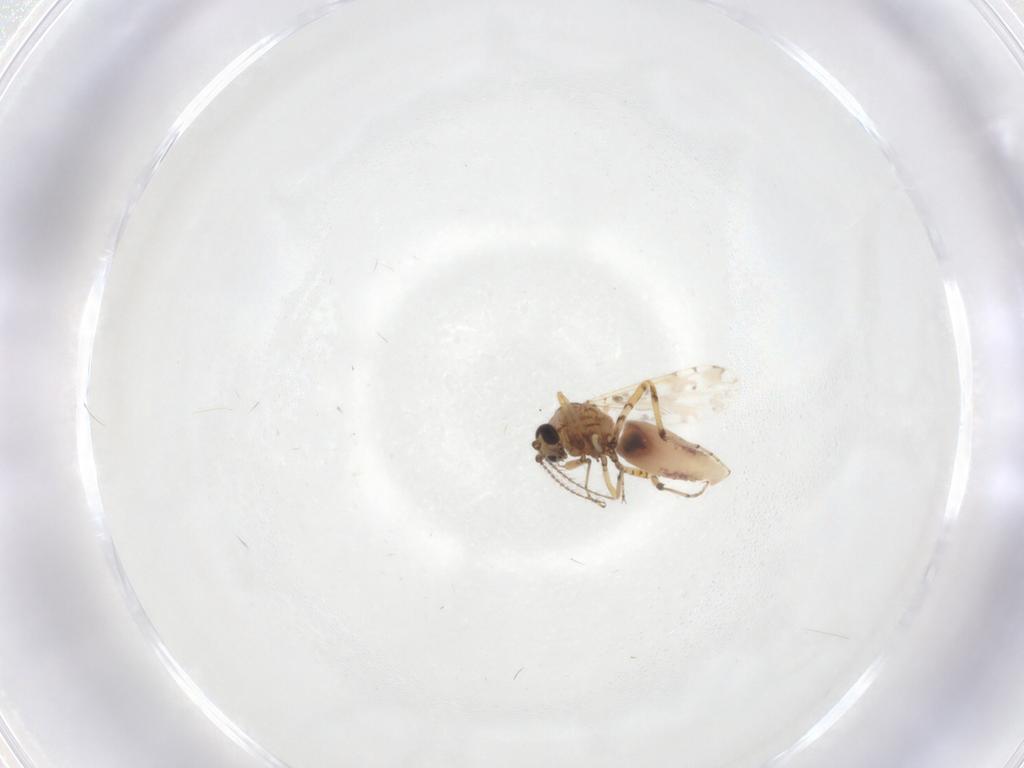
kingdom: Animalia
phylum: Arthropoda
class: Insecta
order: Diptera
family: Ceratopogonidae
